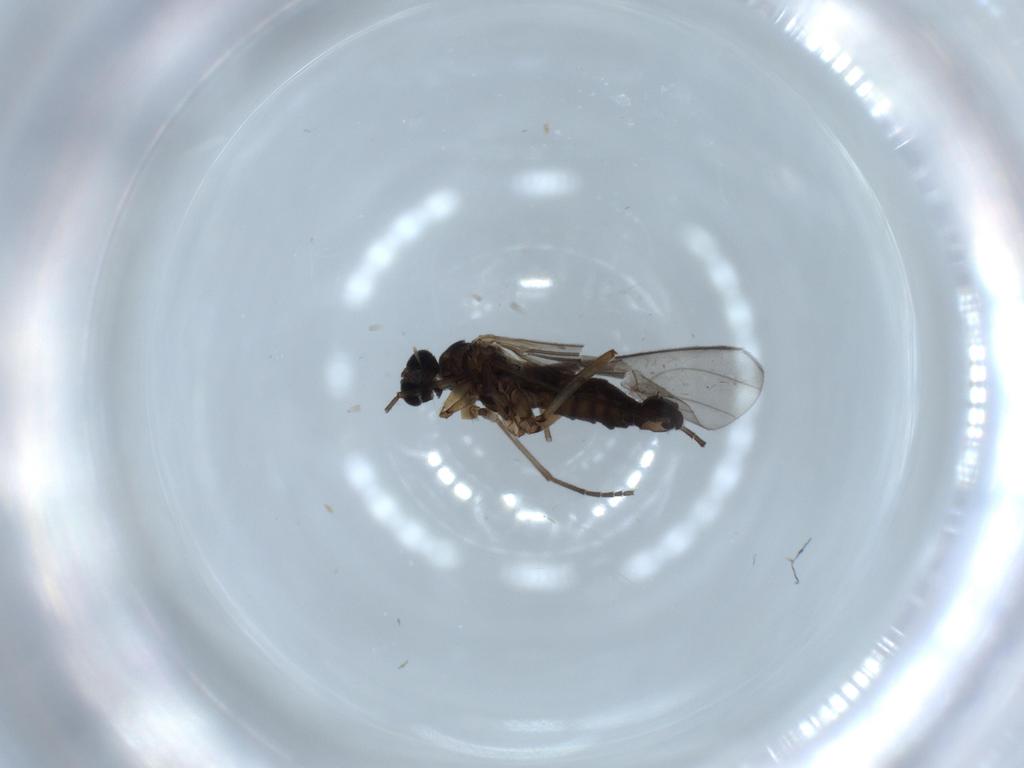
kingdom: Animalia
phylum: Arthropoda
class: Insecta
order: Diptera
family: Sciaridae
